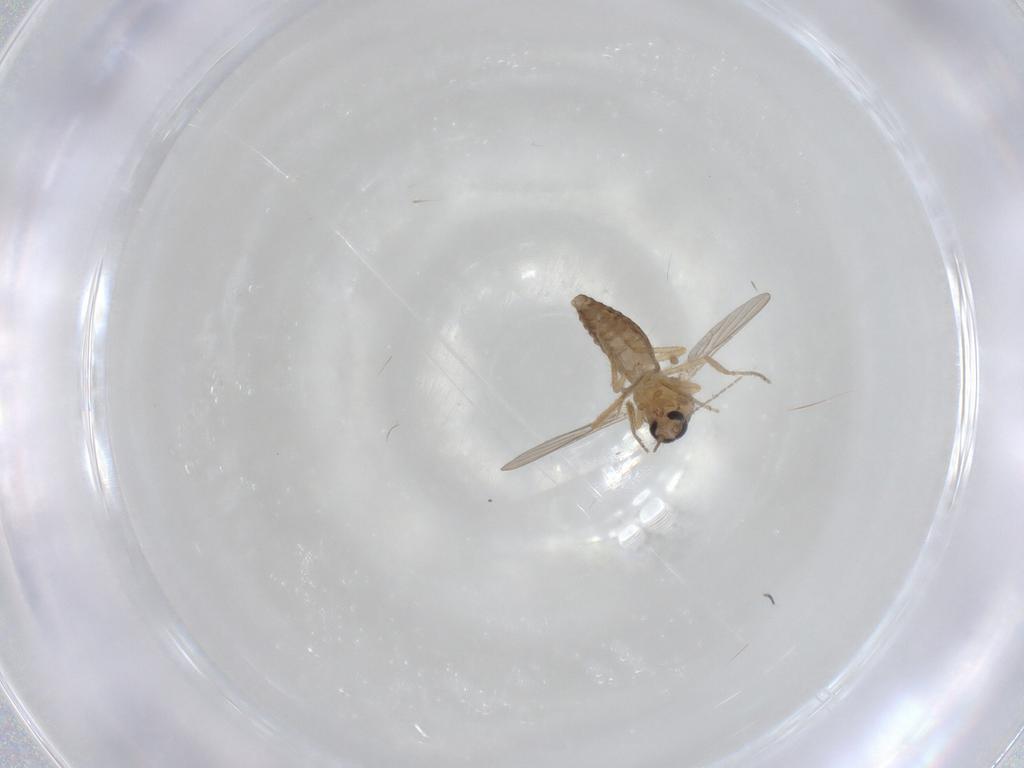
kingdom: Animalia
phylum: Arthropoda
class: Insecta
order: Diptera
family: Ceratopogonidae
